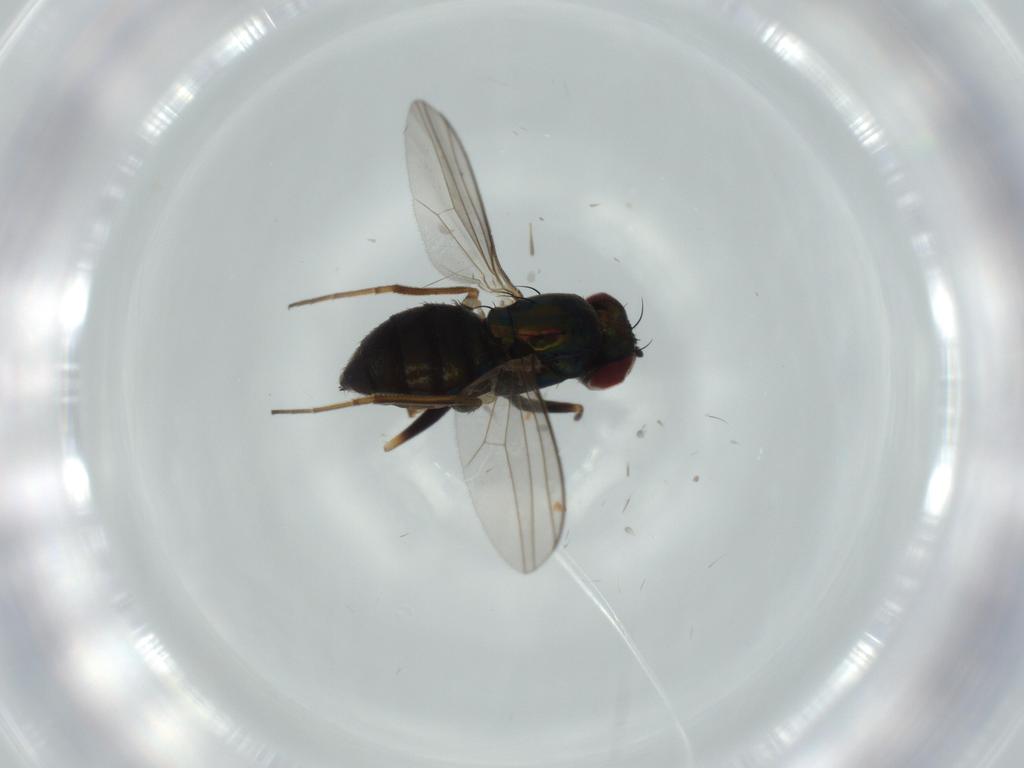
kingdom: Animalia
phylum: Arthropoda
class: Insecta
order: Diptera
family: Dolichopodidae
